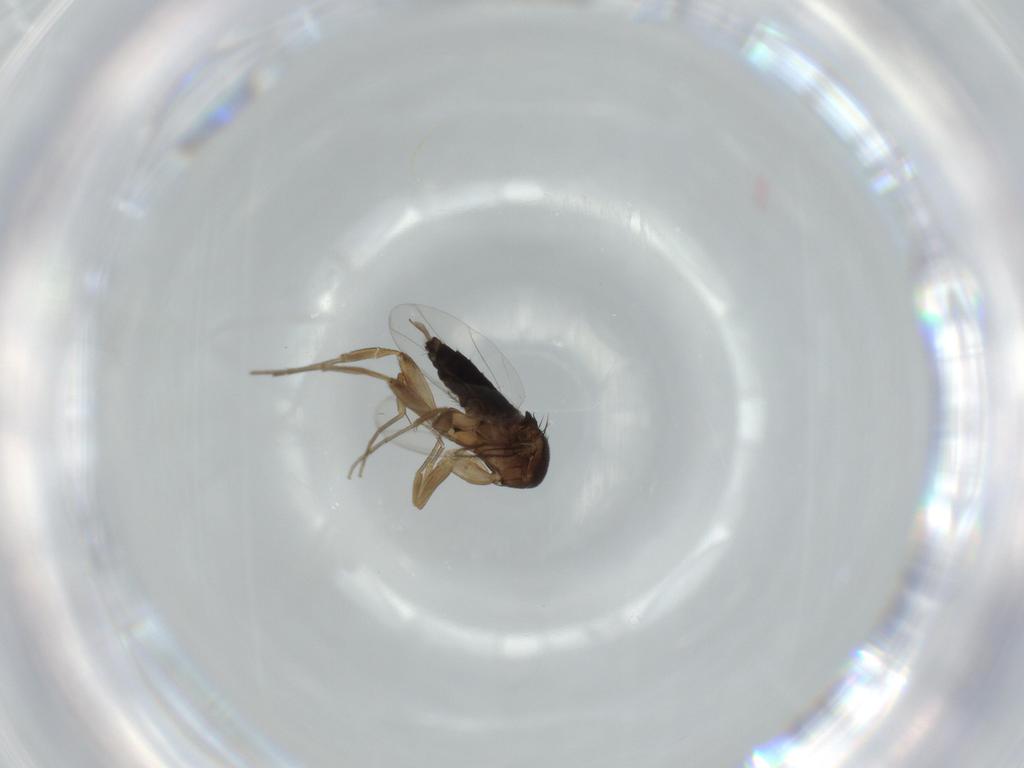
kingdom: Animalia
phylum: Arthropoda
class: Insecta
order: Diptera
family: Phoridae
